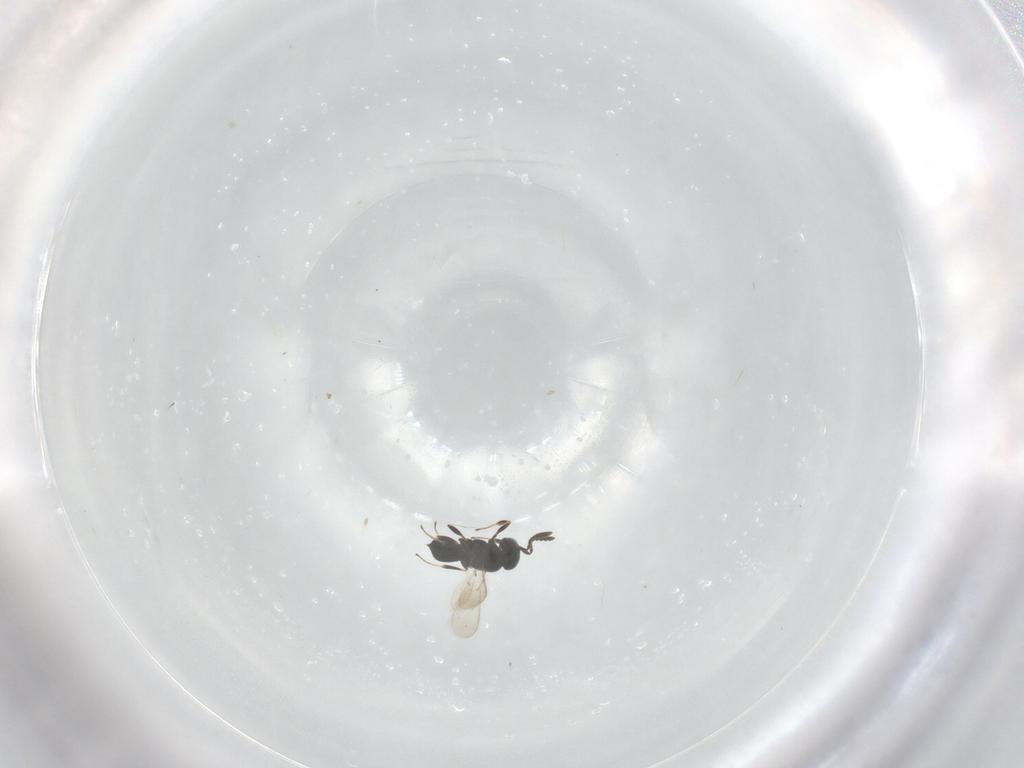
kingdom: Animalia
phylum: Arthropoda
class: Insecta
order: Hymenoptera
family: Scelionidae
